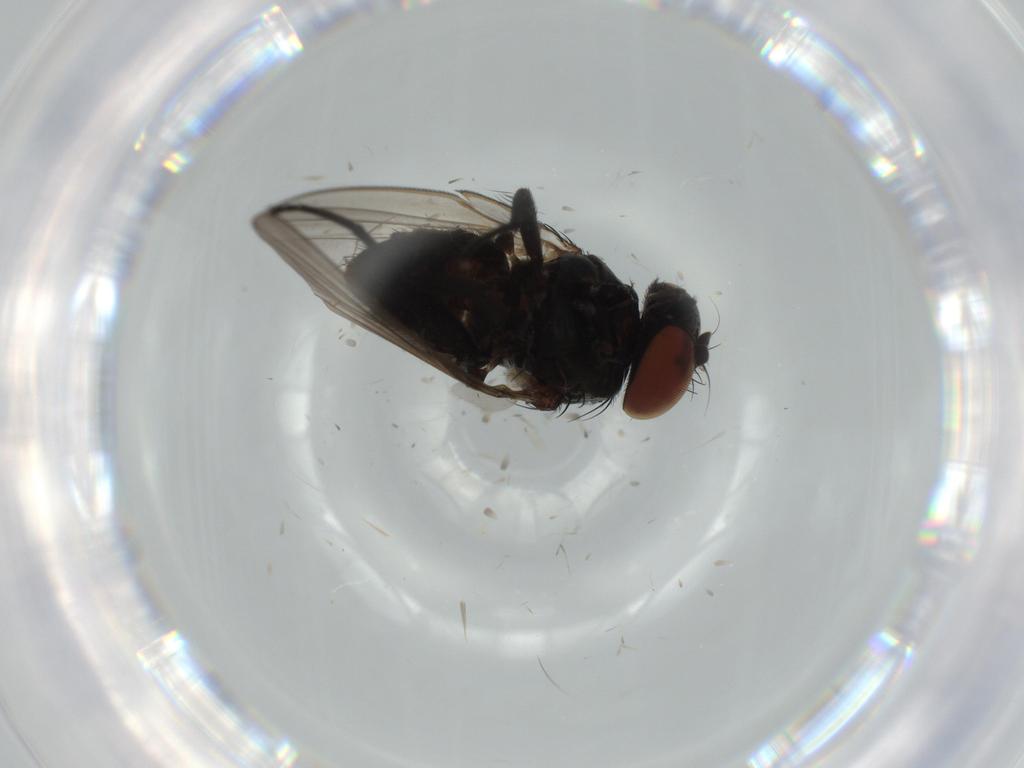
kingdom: Animalia
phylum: Arthropoda
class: Insecta
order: Diptera
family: Milichiidae
